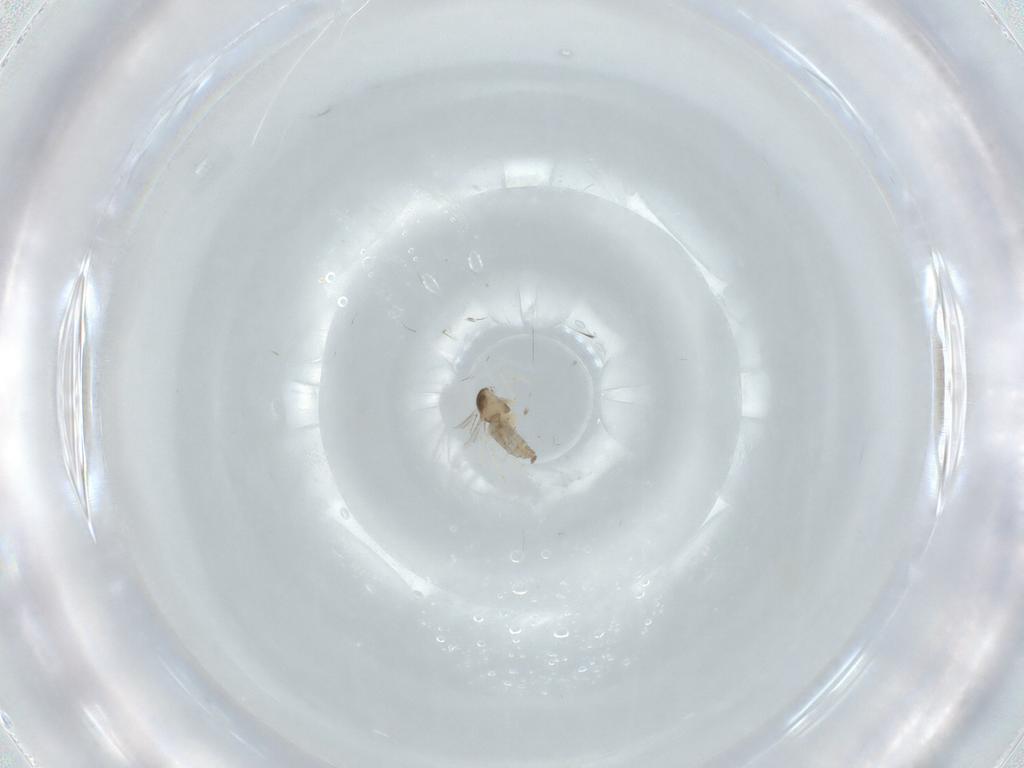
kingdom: Animalia
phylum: Arthropoda
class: Insecta
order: Diptera
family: Cecidomyiidae
